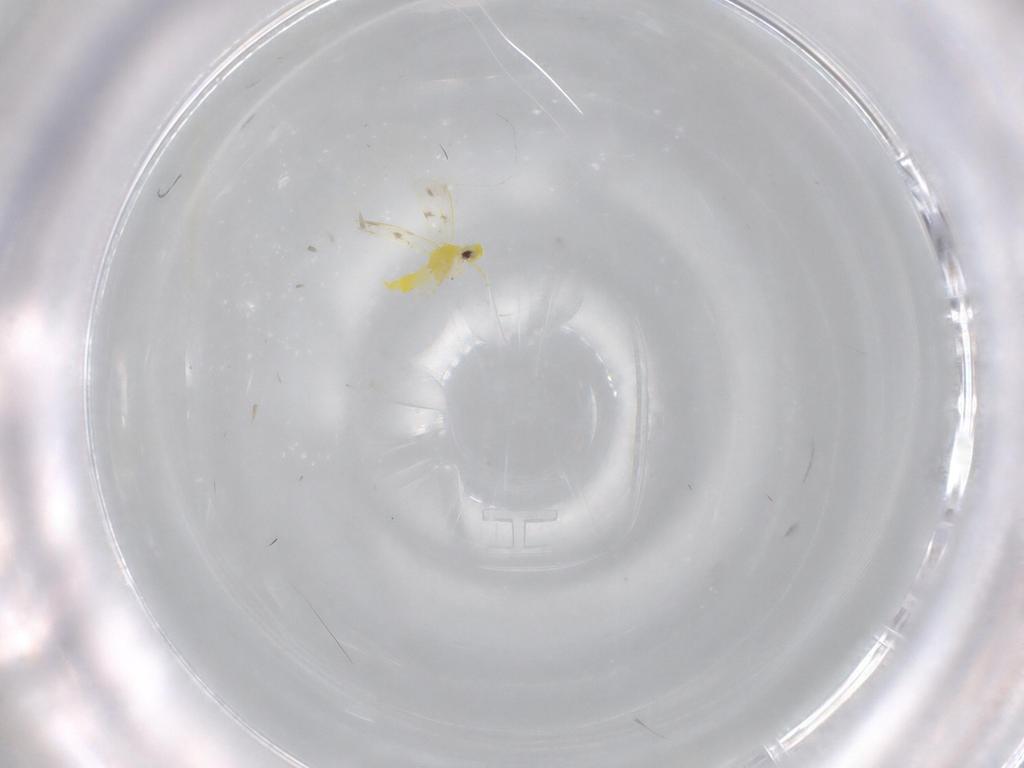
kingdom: Animalia
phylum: Arthropoda
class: Insecta
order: Hemiptera
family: Aleyrodidae
